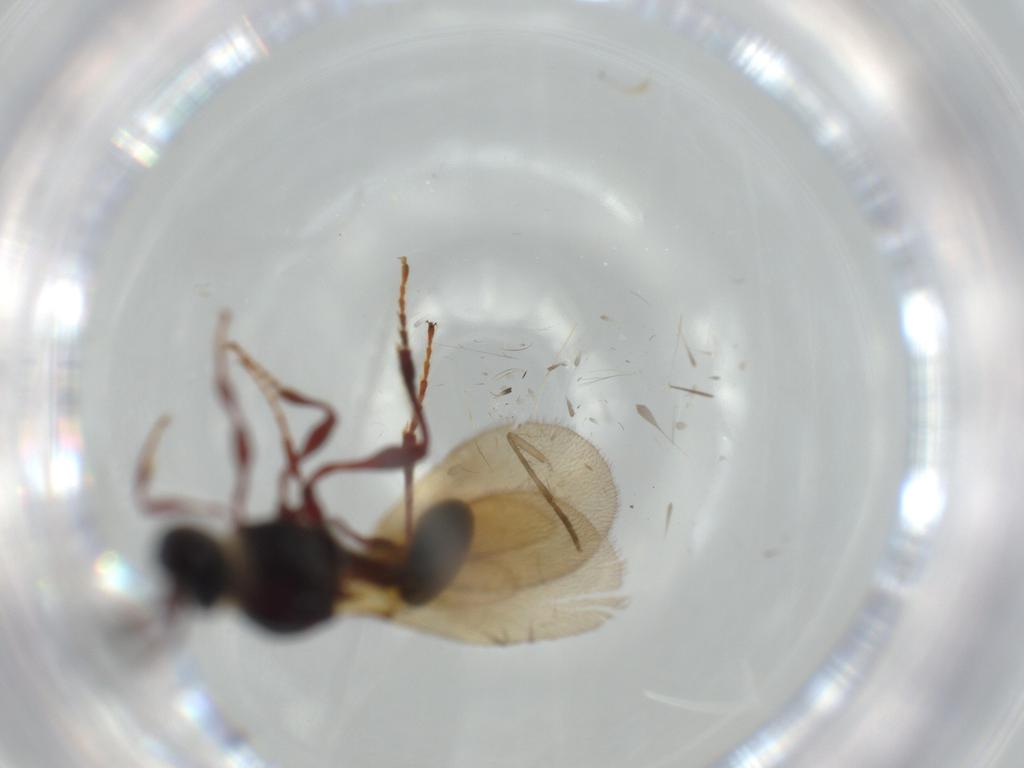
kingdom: Animalia
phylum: Arthropoda
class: Insecta
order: Hymenoptera
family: Diapriidae
